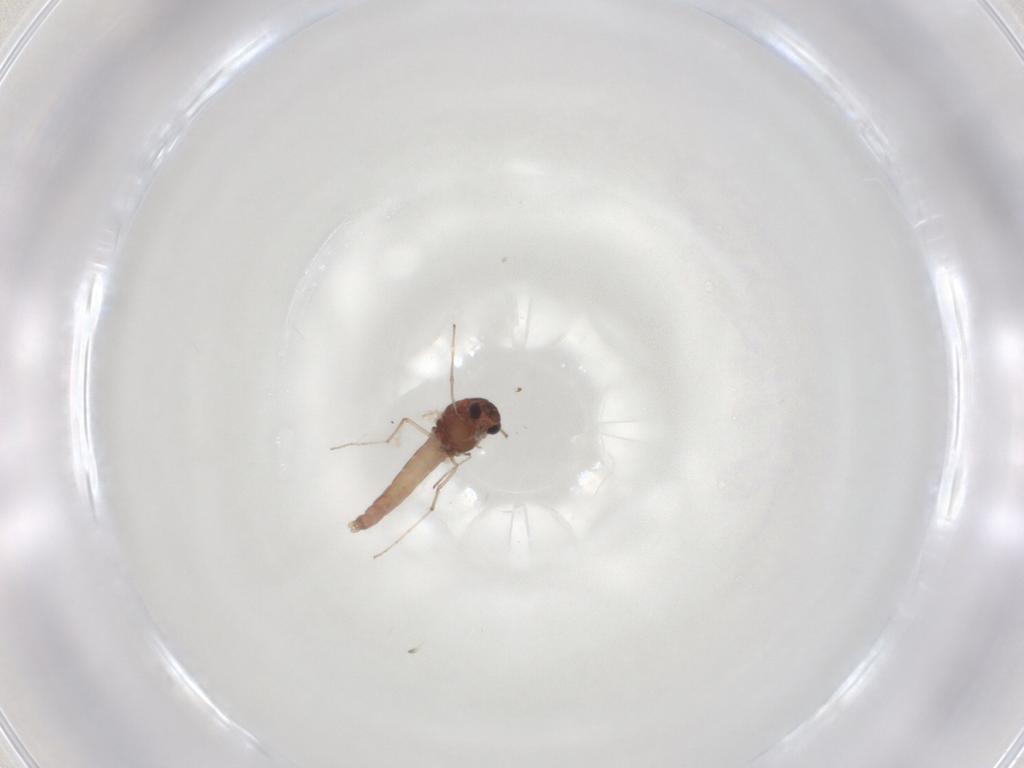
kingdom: Animalia
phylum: Arthropoda
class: Insecta
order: Diptera
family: Chironomidae
